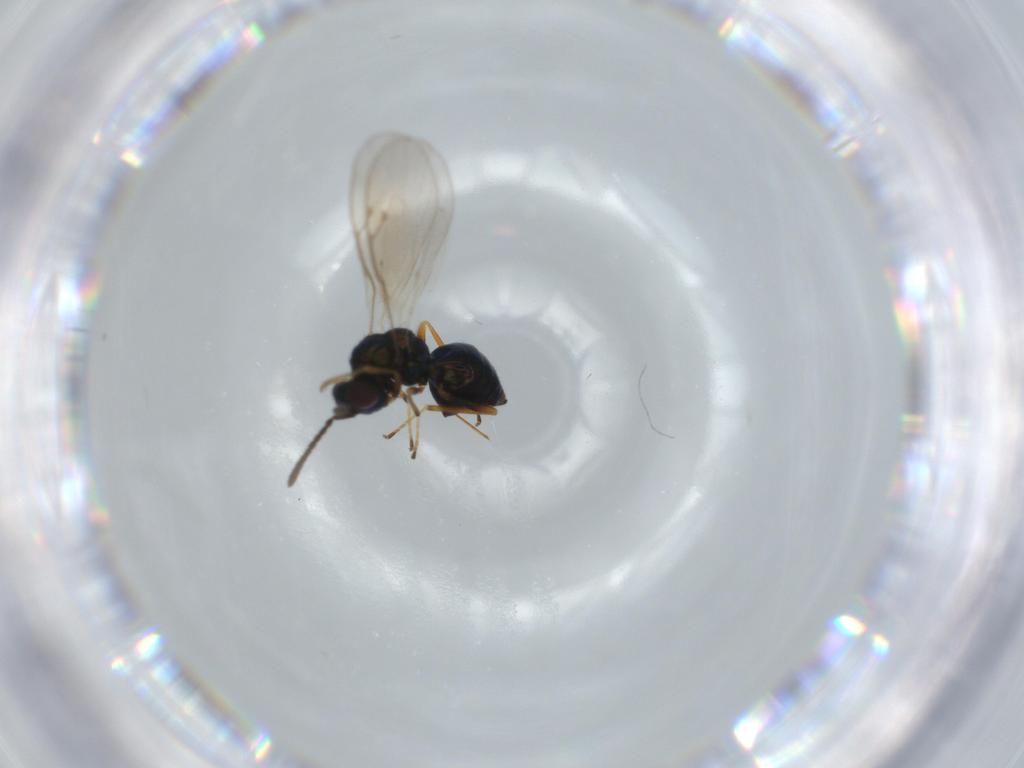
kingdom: Animalia
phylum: Arthropoda
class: Insecta
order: Hymenoptera
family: Pteromalidae
